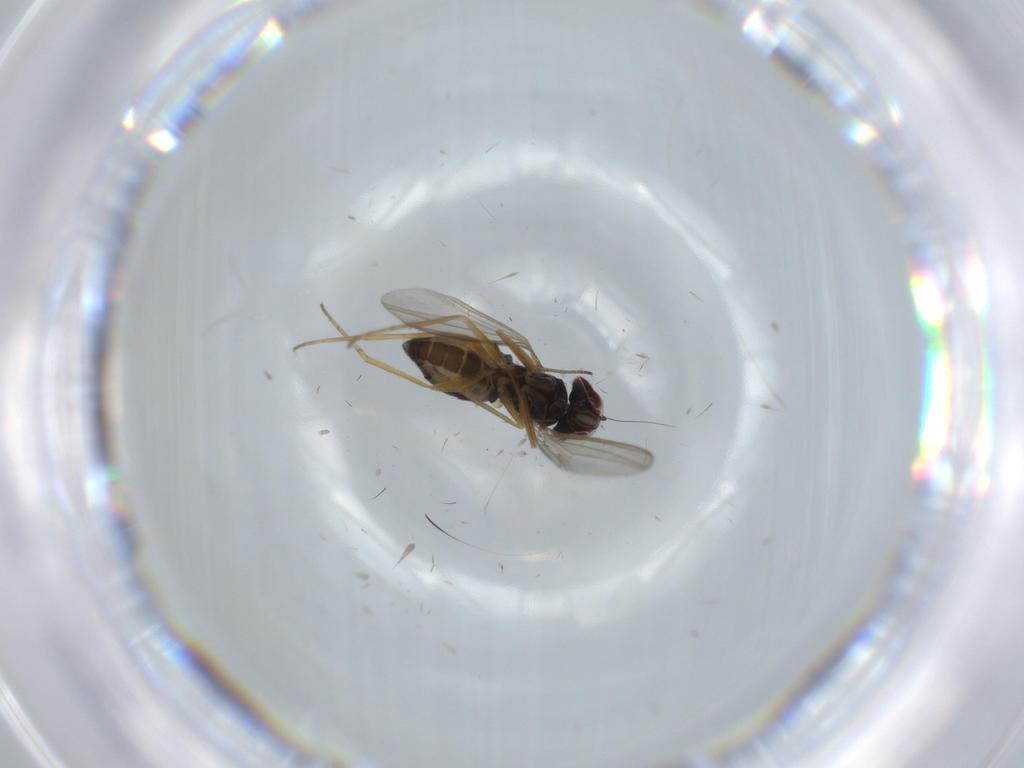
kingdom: Animalia
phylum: Arthropoda
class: Insecta
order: Diptera
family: Dolichopodidae
